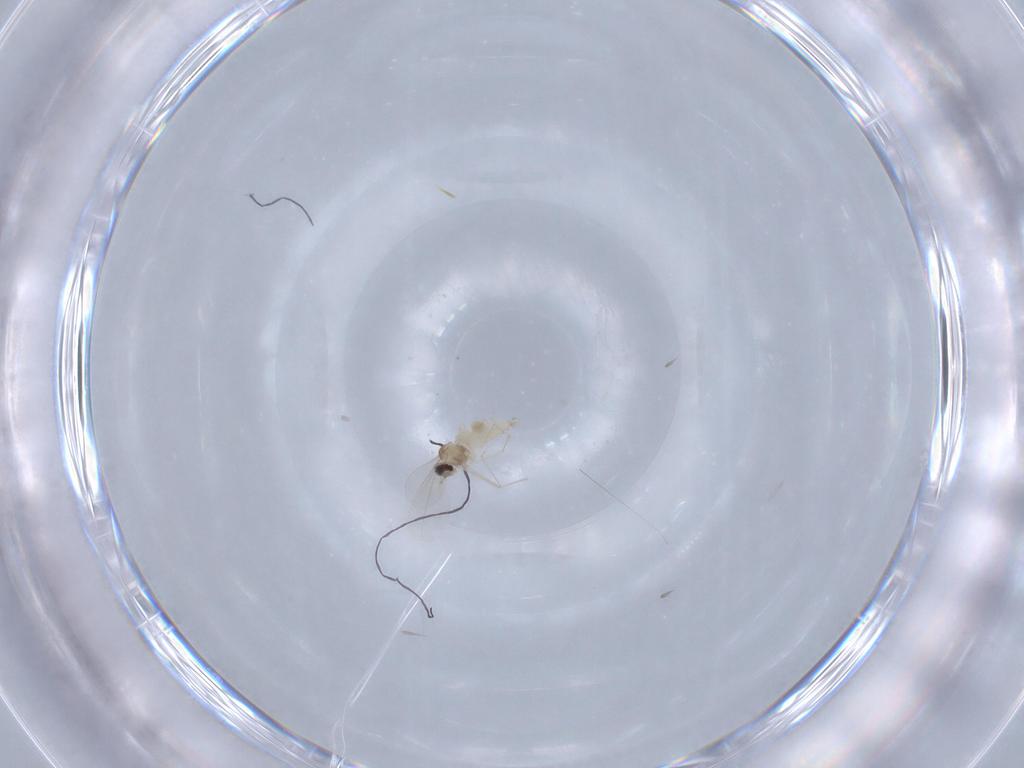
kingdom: Animalia
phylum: Arthropoda
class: Insecta
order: Diptera
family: Cecidomyiidae
